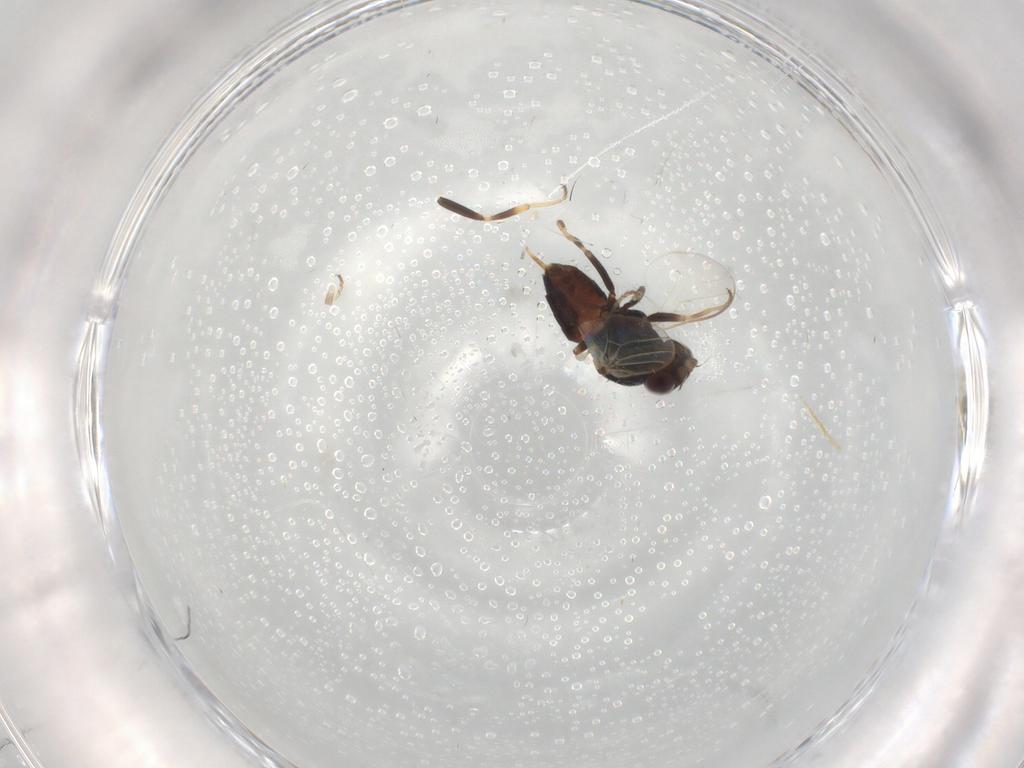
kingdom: Animalia
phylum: Arthropoda
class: Insecta
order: Diptera
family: Chloropidae
